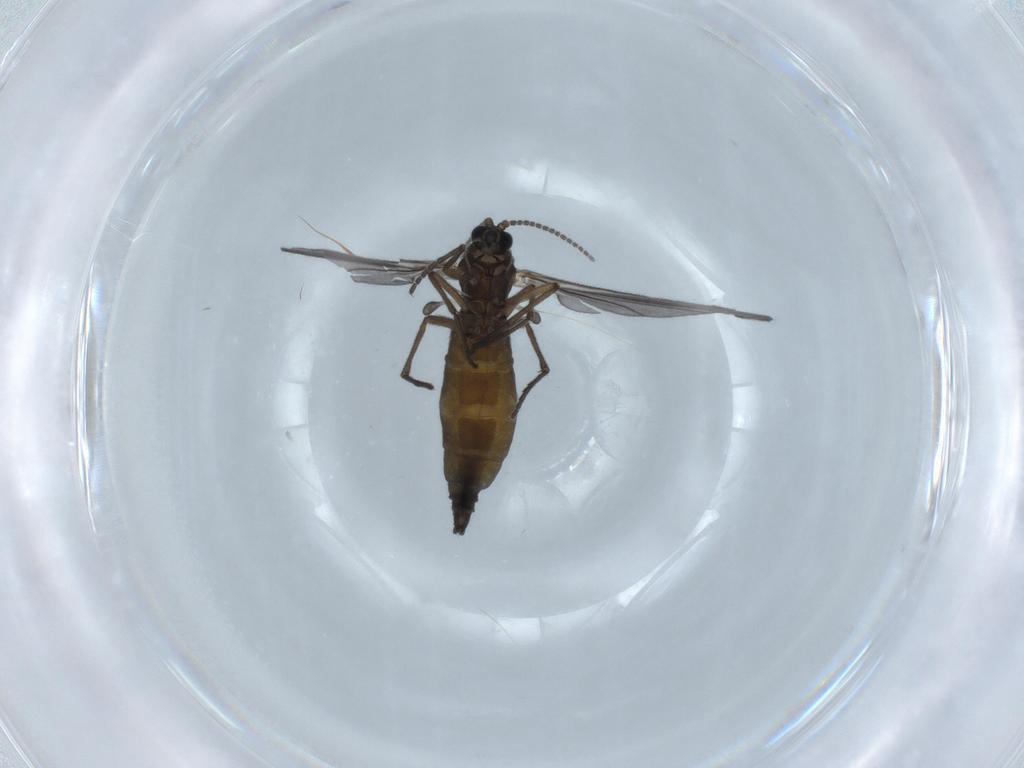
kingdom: Animalia
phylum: Arthropoda
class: Insecta
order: Diptera
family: Sciaridae
